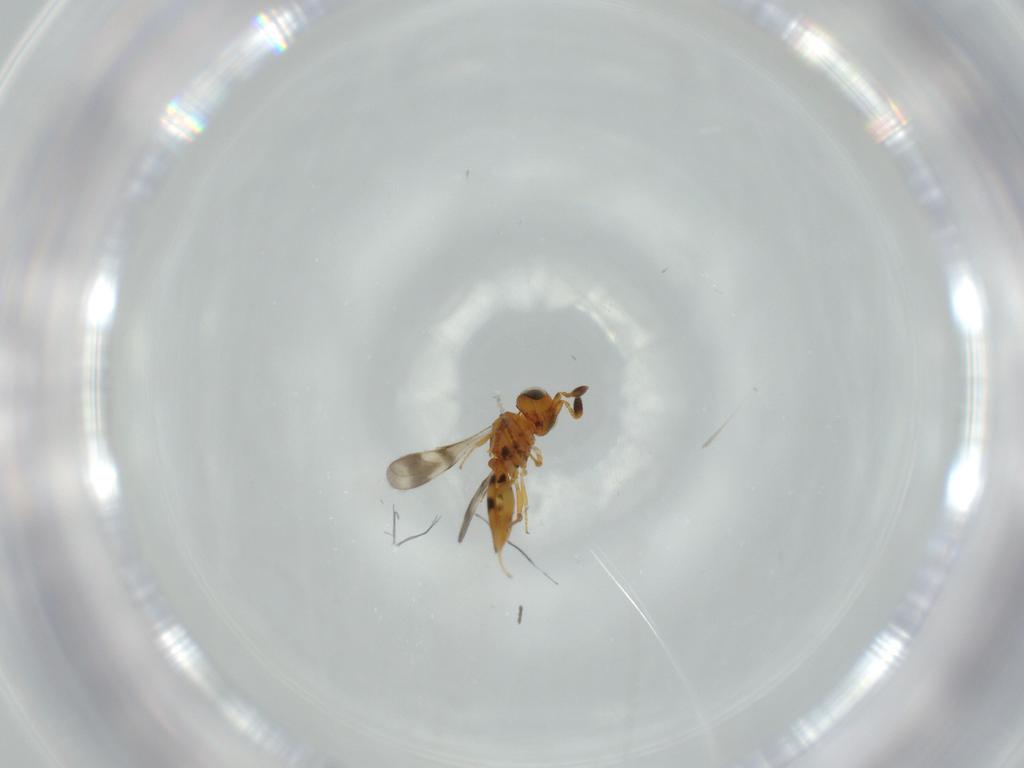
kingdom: Animalia
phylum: Arthropoda
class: Insecta
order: Hymenoptera
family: Scelionidae
